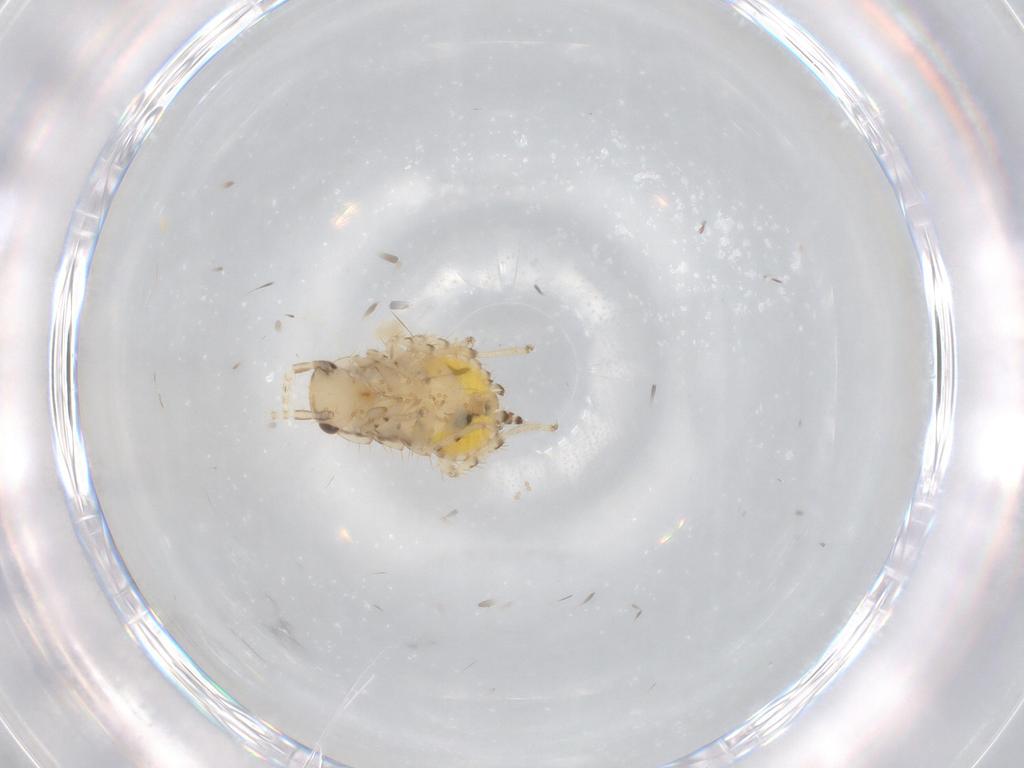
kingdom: Animalia
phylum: Arthropoda
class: Insecta
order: Blattodea
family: Ectobiidae
